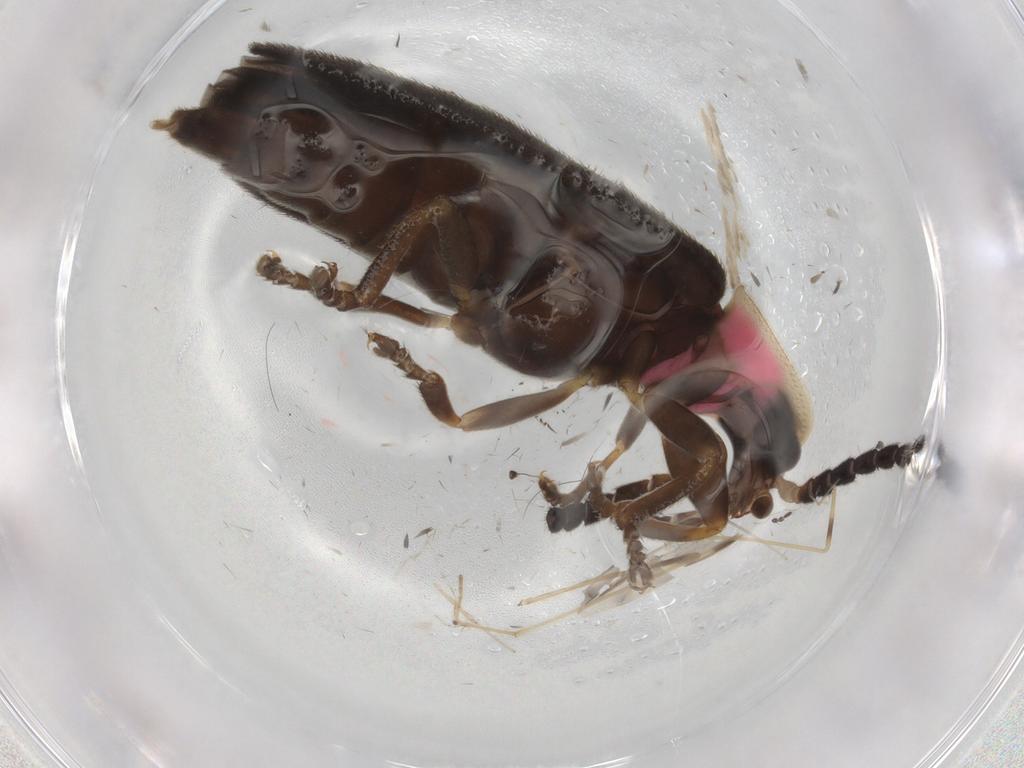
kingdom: Animalia
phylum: Arthropoda
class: Insecta
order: Coleoptera
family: Lampyridae
